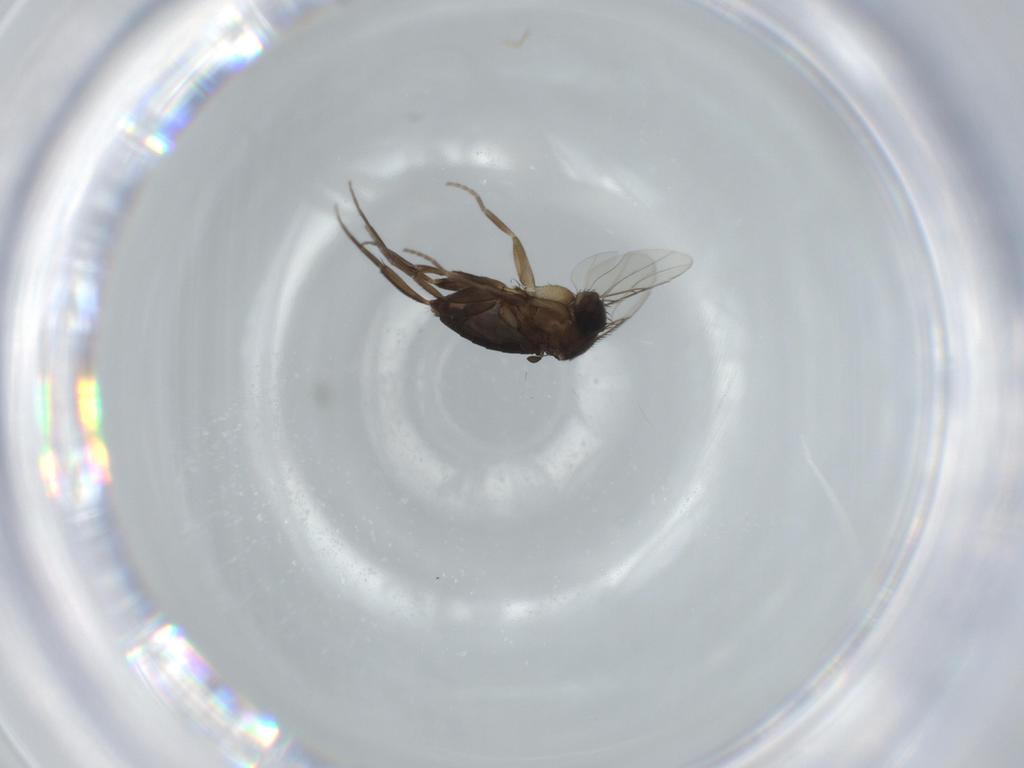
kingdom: Animalia
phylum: Arthropoda
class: Insecta
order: Diptera
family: Phoridae
